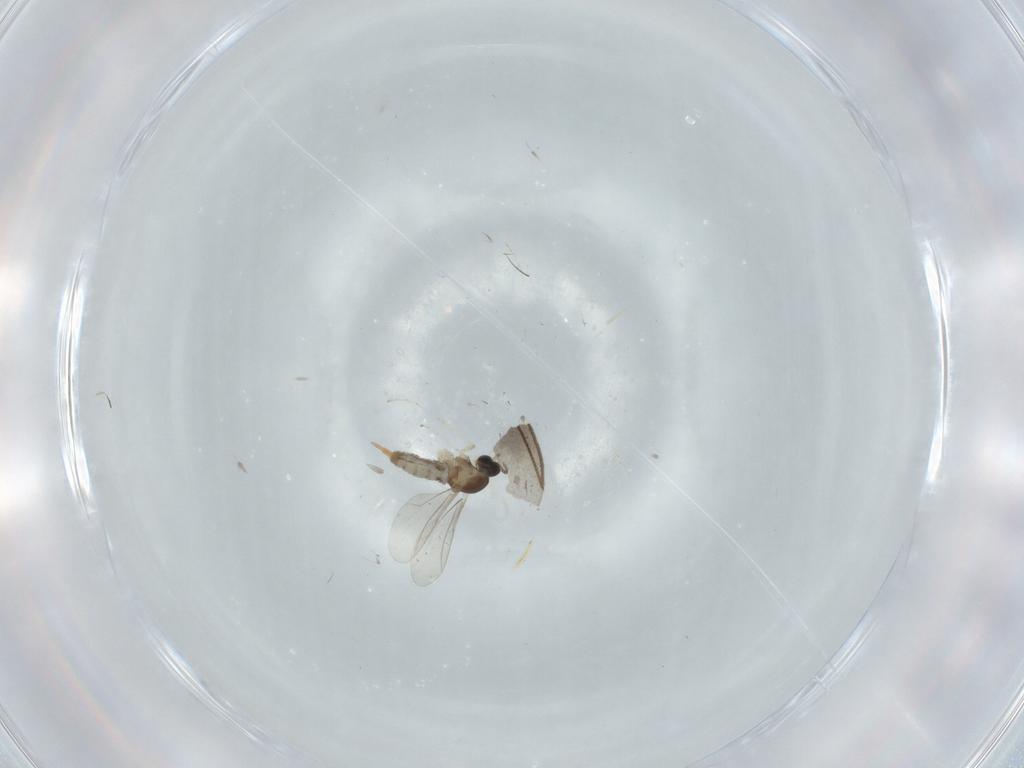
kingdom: Animalia
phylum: Arthropoda
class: Insecta
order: Diptera
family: Cecidomyiidae
